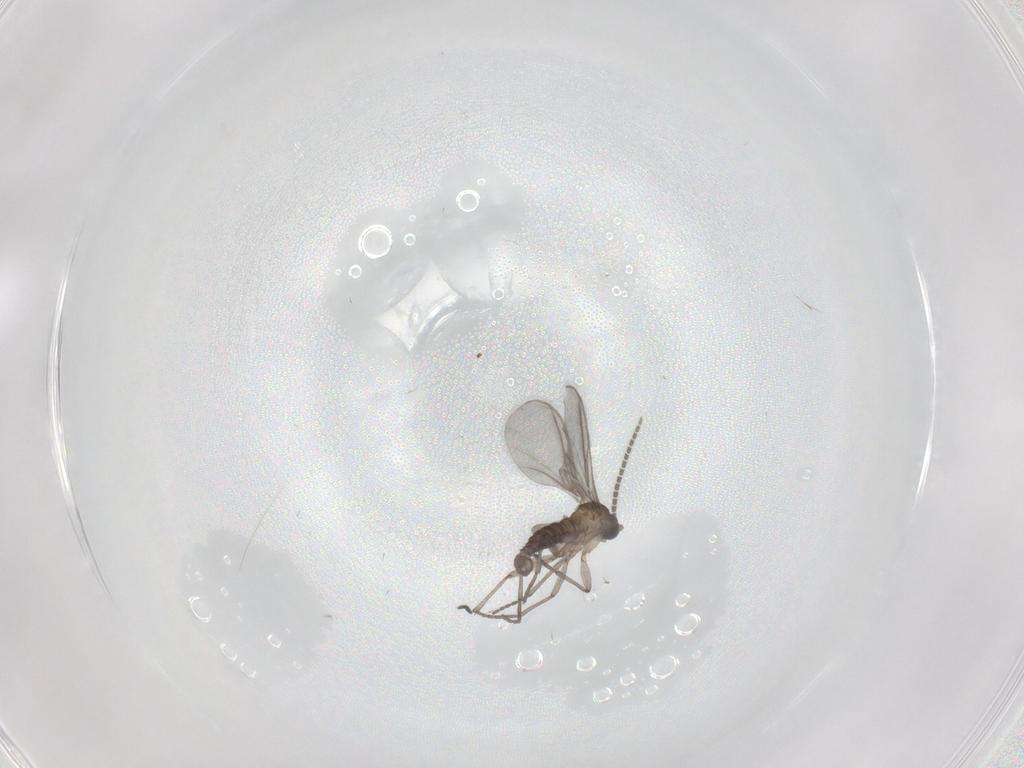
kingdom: Animalia
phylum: Arthropoda
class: Insecta
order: Diptera
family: Sciaridae
